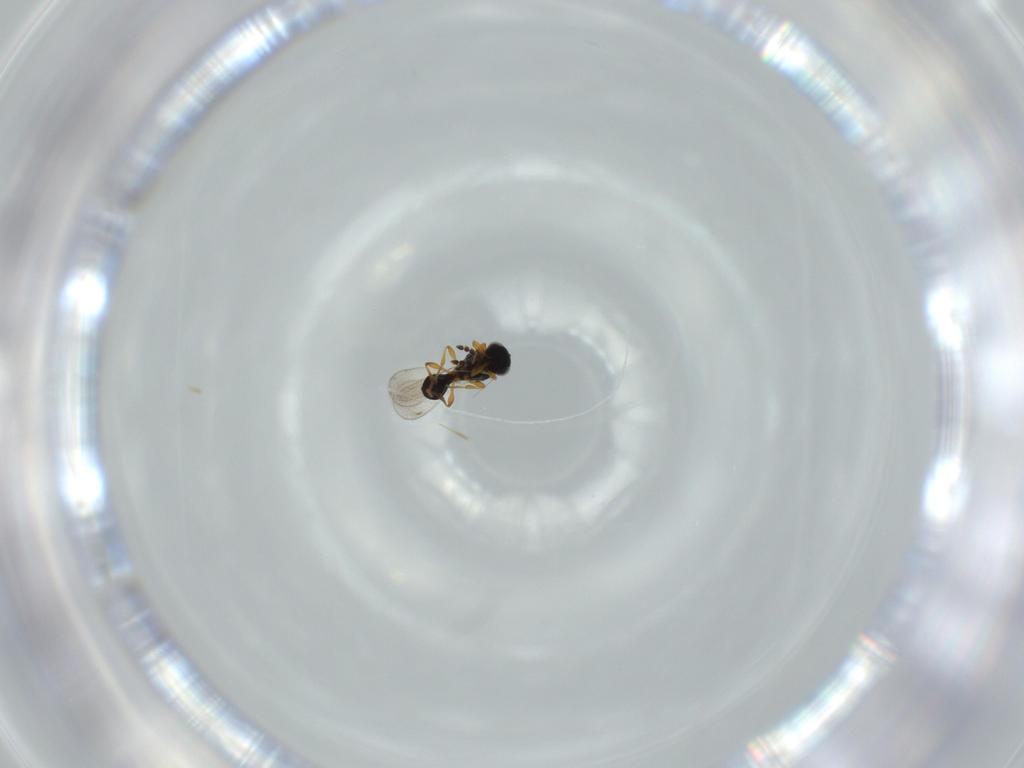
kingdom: Animalia
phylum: Arthropoda
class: Insecta
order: Hymenoptera
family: Platygastridae
